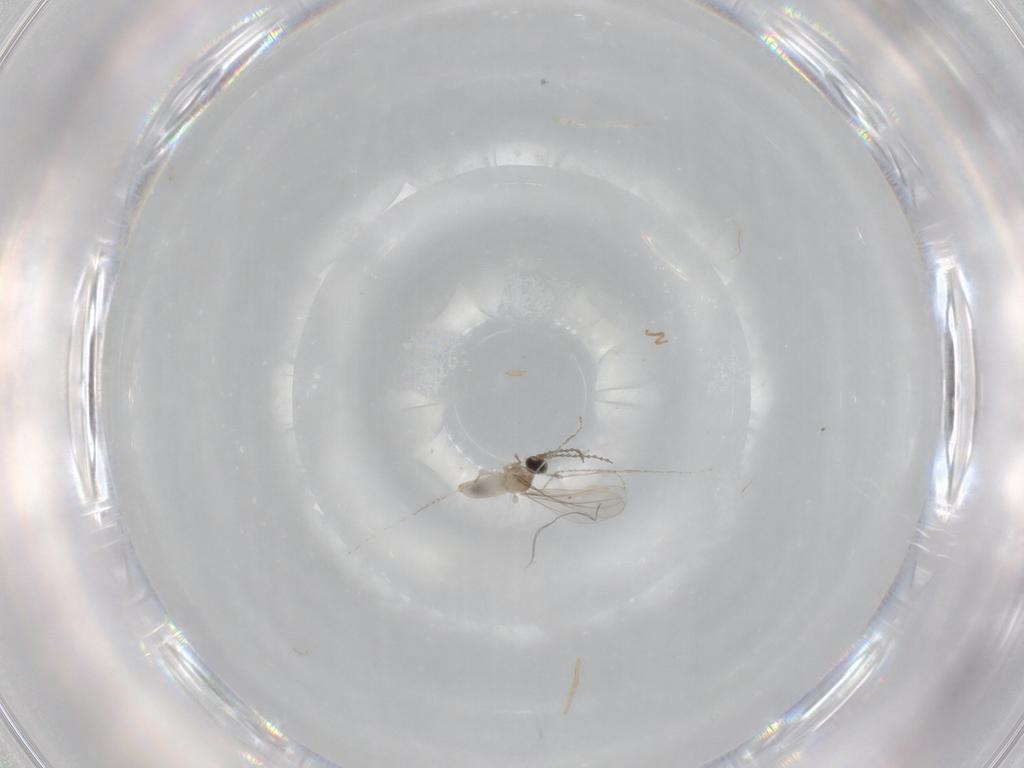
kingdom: Animalia
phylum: Arthropoda
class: Insecta
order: Diptera
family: Cecidomyiidae
